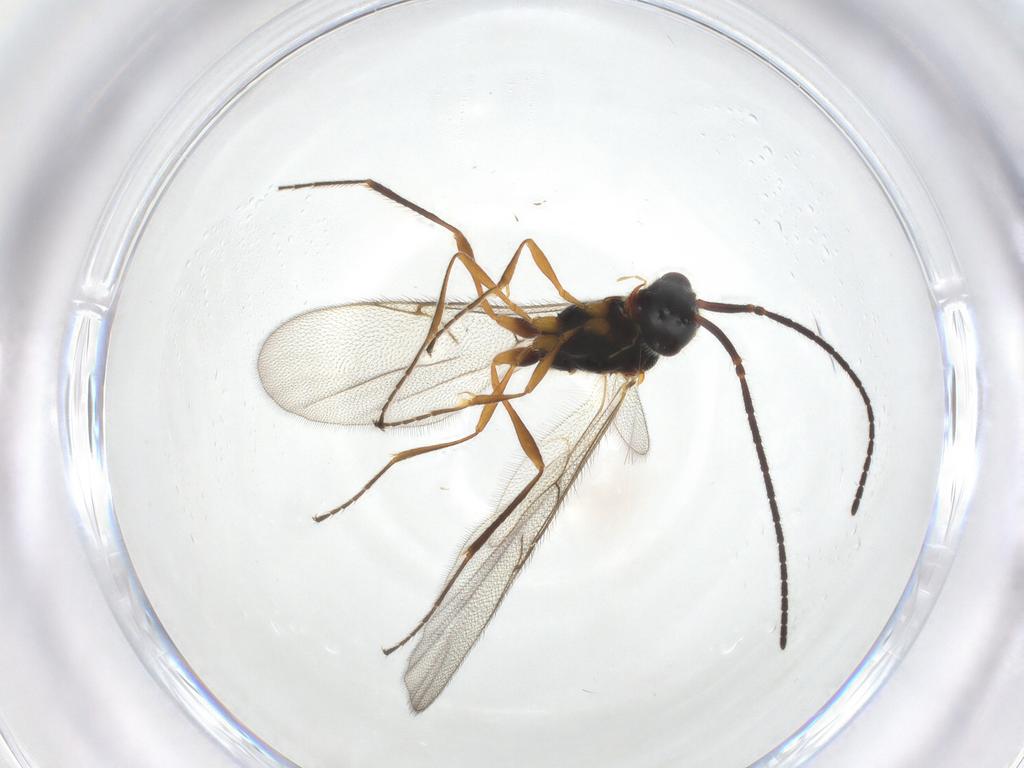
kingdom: Animalia
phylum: Arthropoda
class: Insecta
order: Hymenoptera
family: Diapriidae
